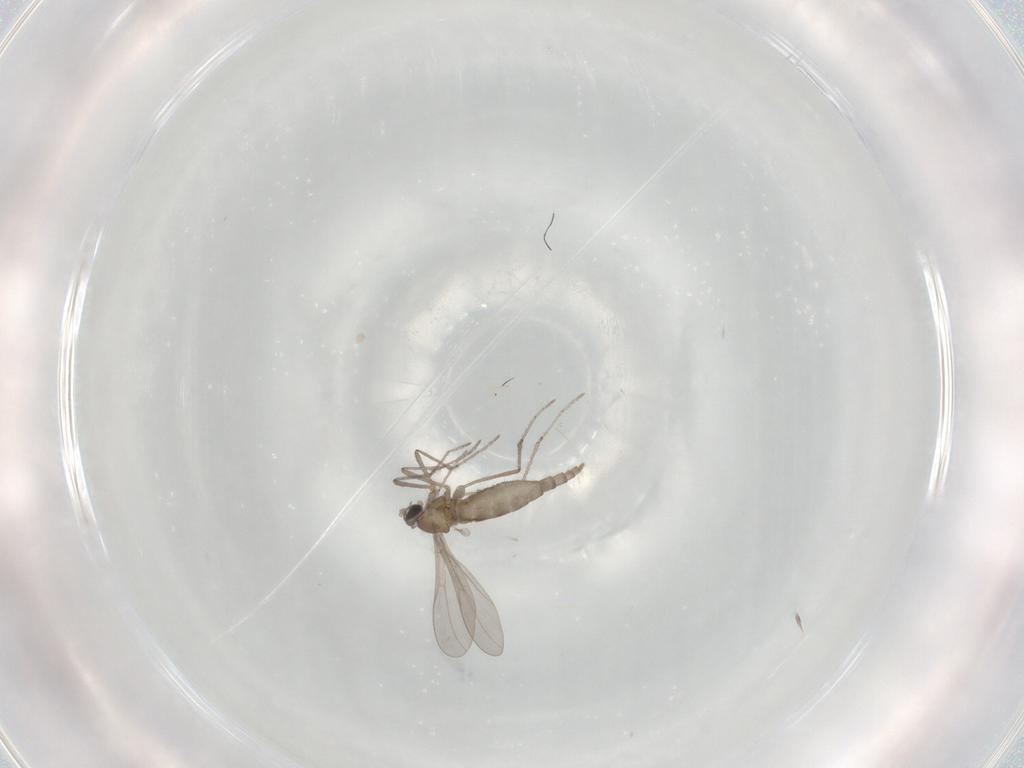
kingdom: Animalia
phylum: Arthropoda
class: Insecta
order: Diptera
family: Cecidomyiidae
